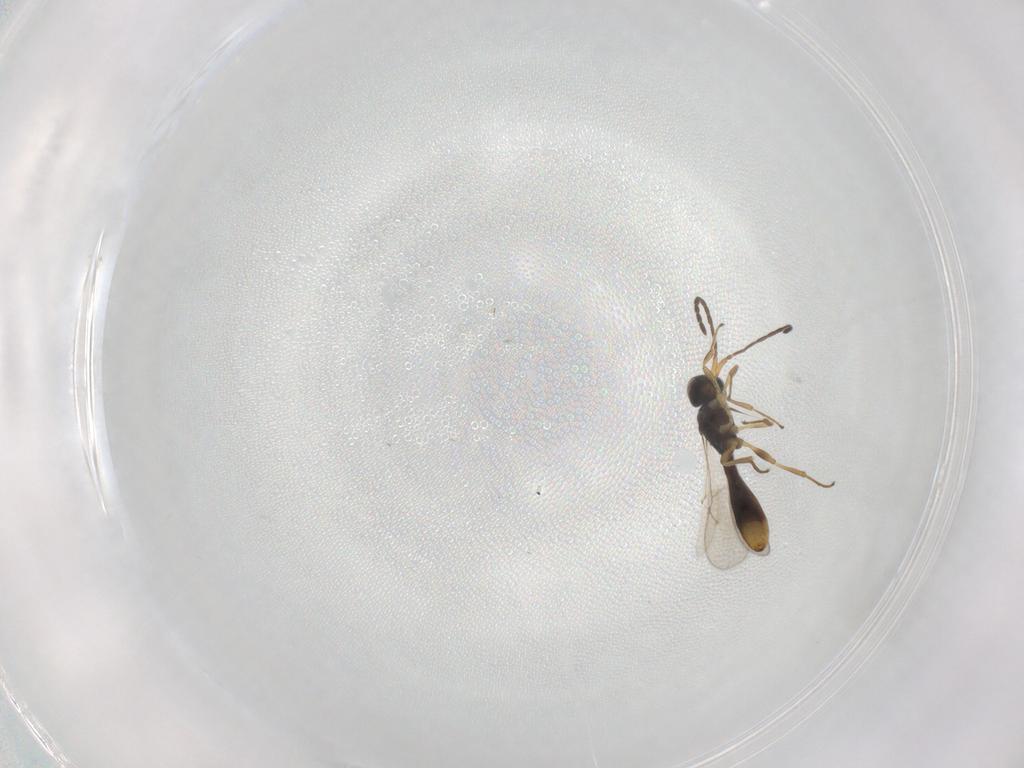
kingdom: Animalia
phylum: Arthropoda
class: Insecta
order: Hymenoptera
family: Scelionidae
